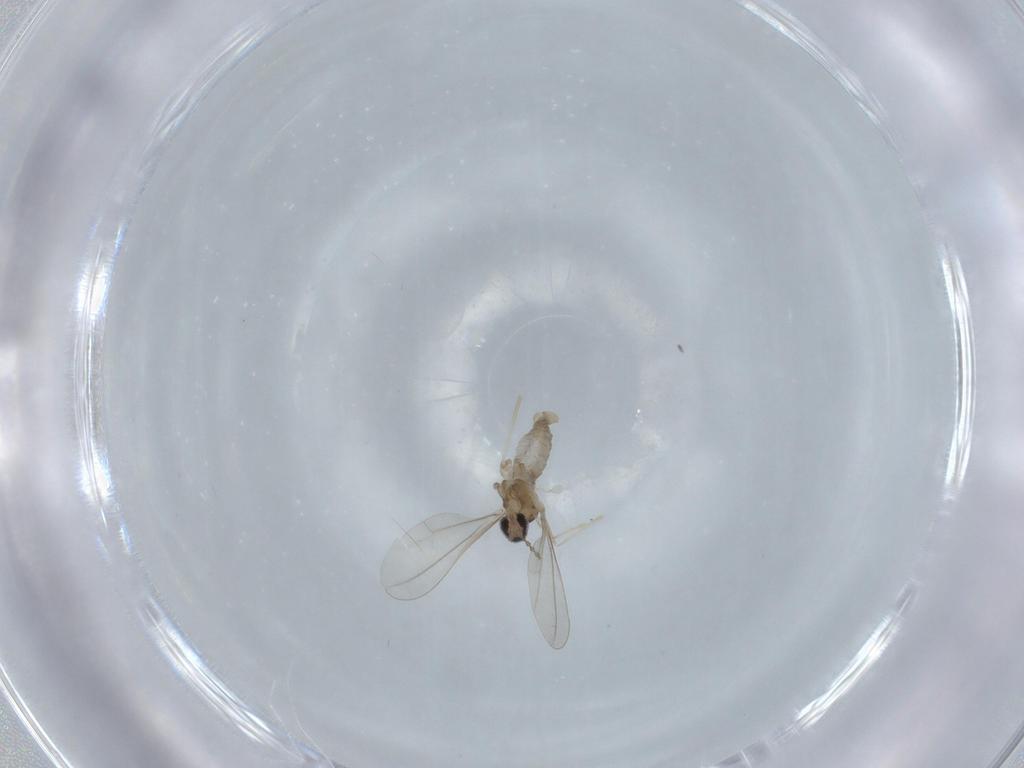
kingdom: Animalia
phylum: Arthropoda
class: Insecta
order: Diptera
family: Cecidomyiidae
